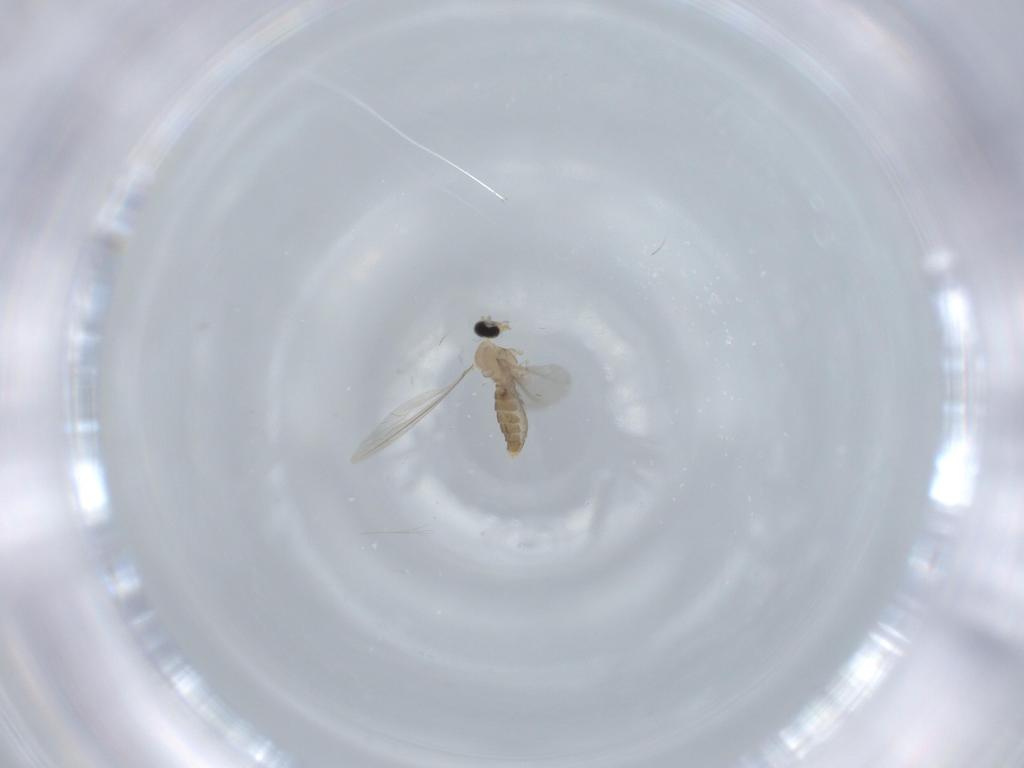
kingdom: Animalia
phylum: Arthropoda
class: Insecta
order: Diptera
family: Cecidomyiidae
